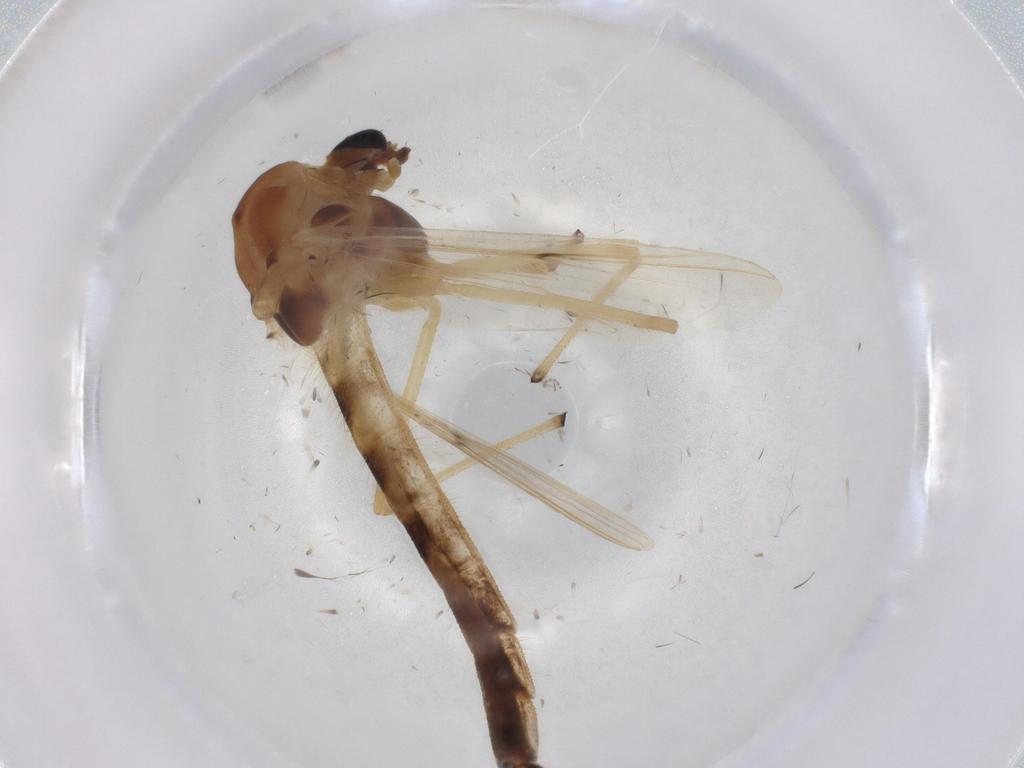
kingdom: Animalia
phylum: Arthropoda
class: Insecta
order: Diptera
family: Chironomidae
